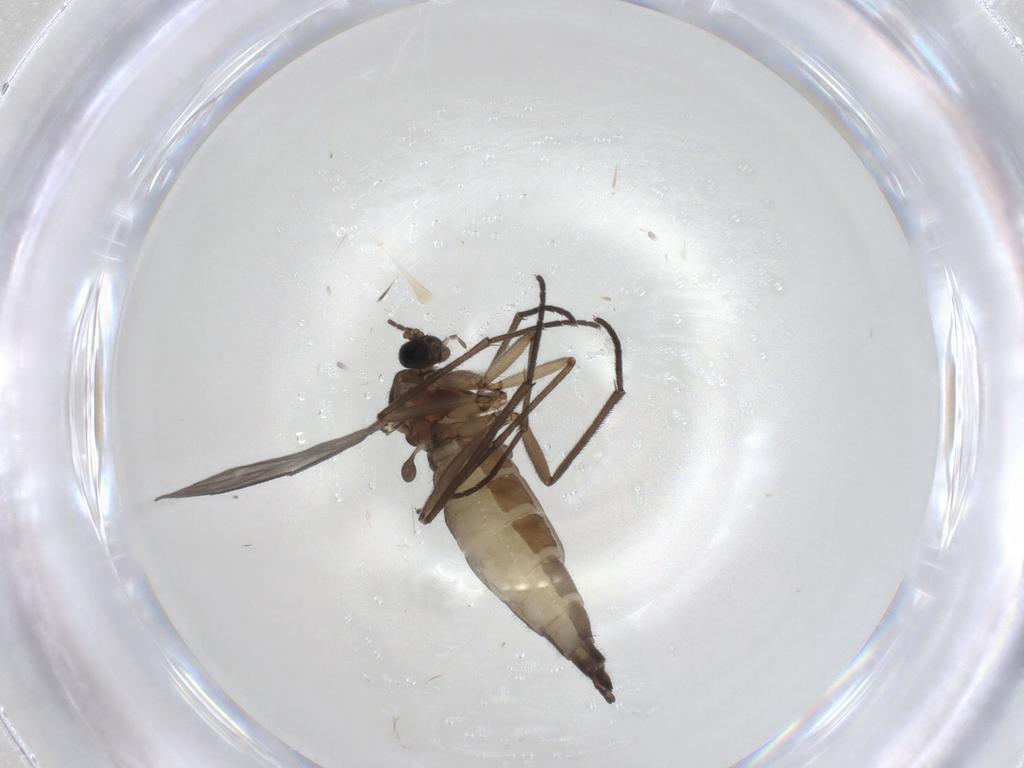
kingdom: Animalia
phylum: Arthropoda
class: Insecta
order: Diptera
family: Sciaridae
